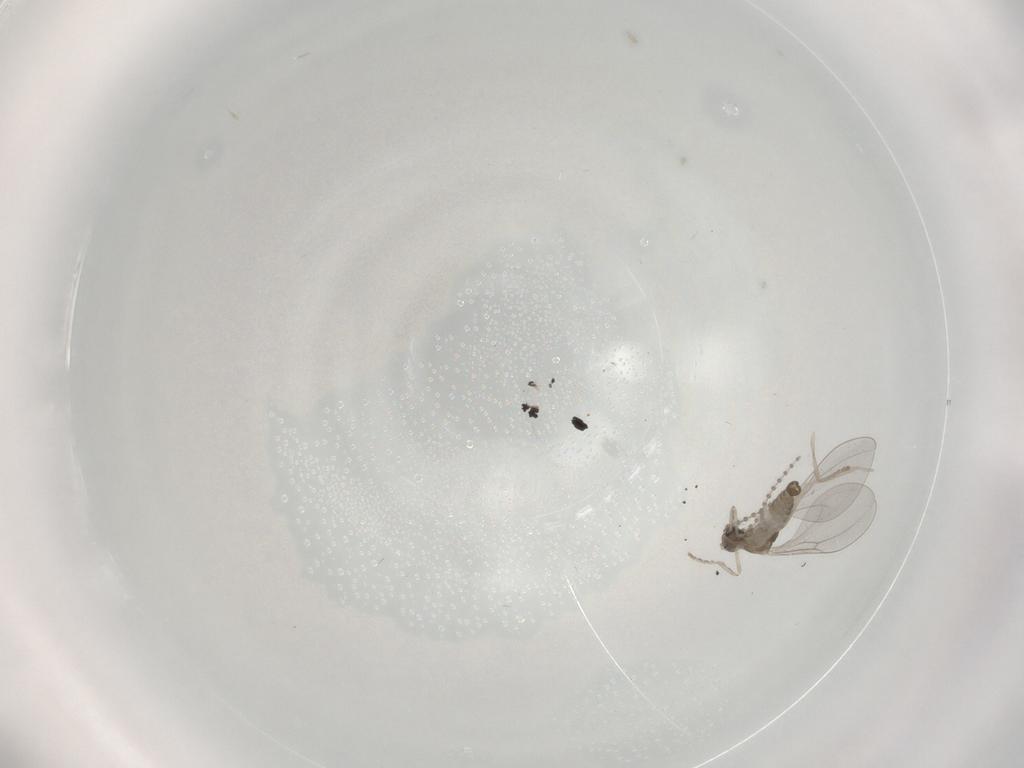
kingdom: Animalia
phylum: Arthropoda
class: Insecta
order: Diptera
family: Cecidomyiidae
